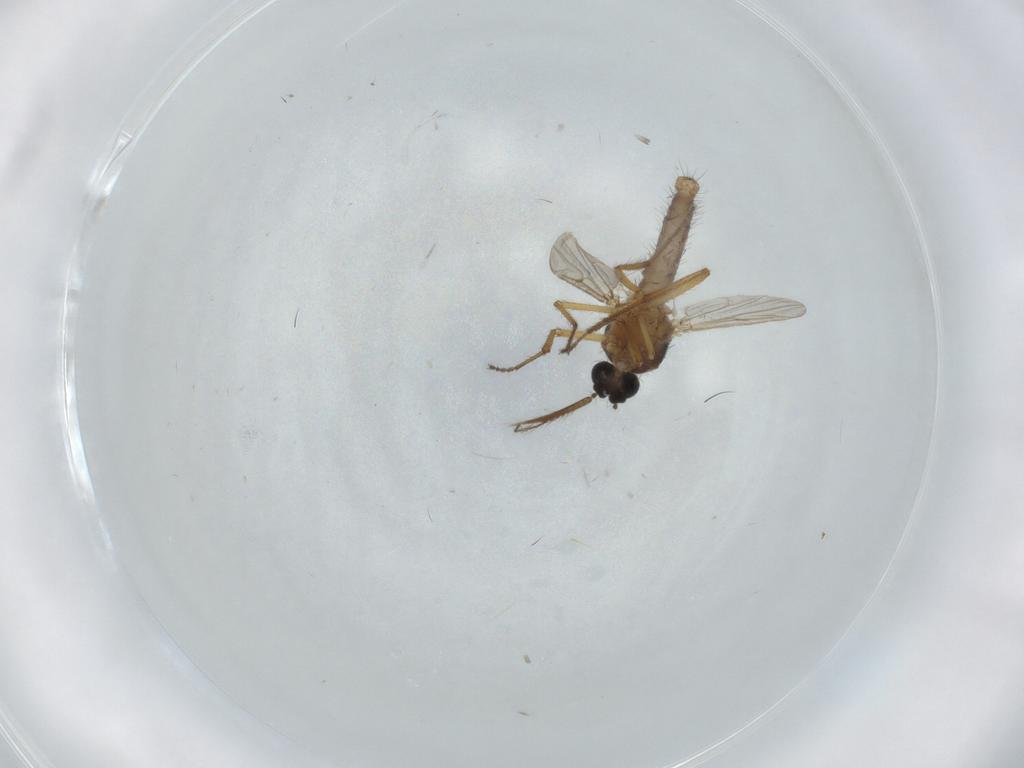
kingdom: Animalia
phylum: Arthropoda
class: Insecta
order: Diptera
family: Ceratopogonidae
